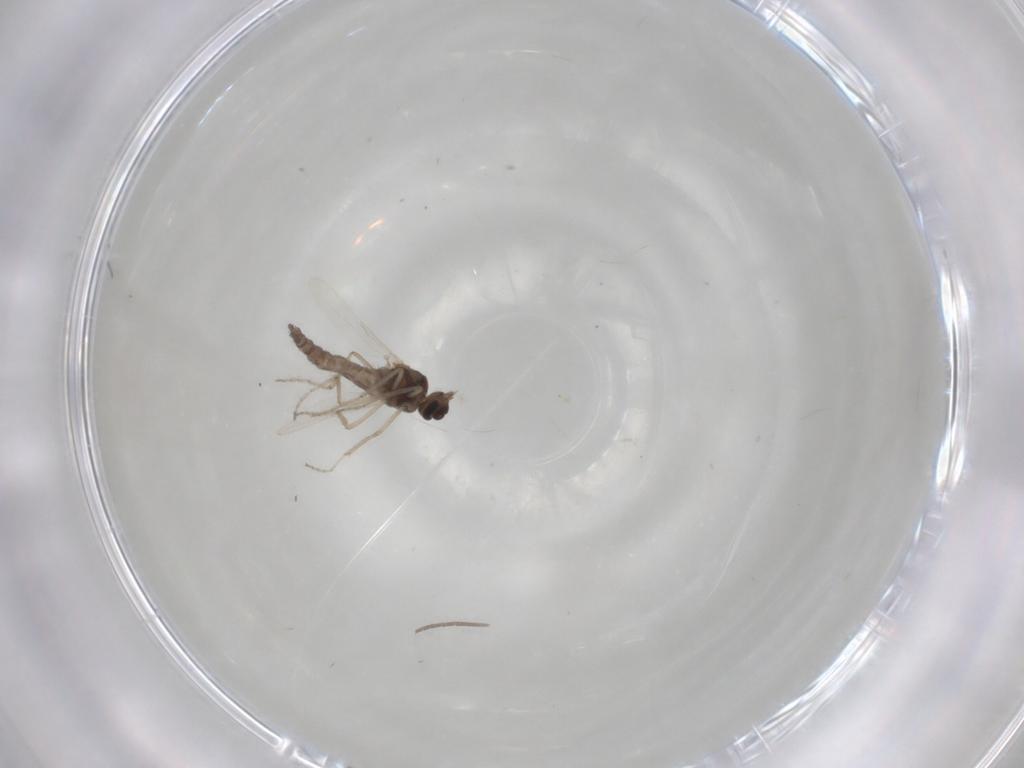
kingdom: Animalia
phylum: Arthropoda
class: Insecta
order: Diptera
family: Ceratopogonidae
